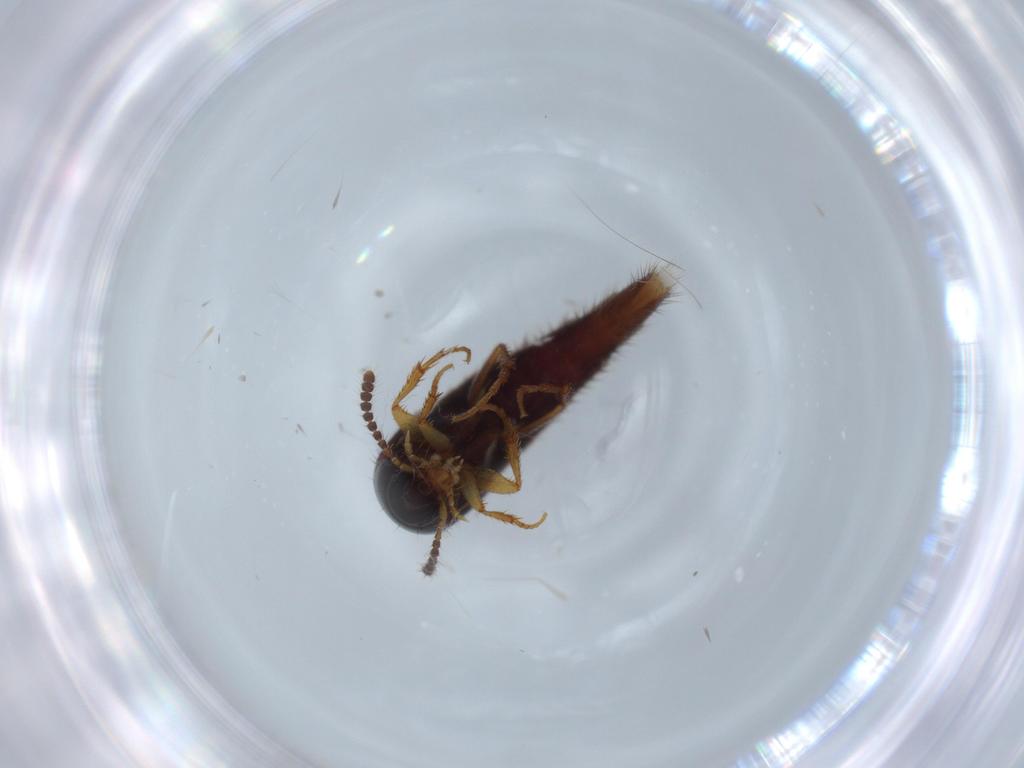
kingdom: Animalia
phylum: Arthropoda
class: Insecta
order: Coleoptera
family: Staphylinidae
